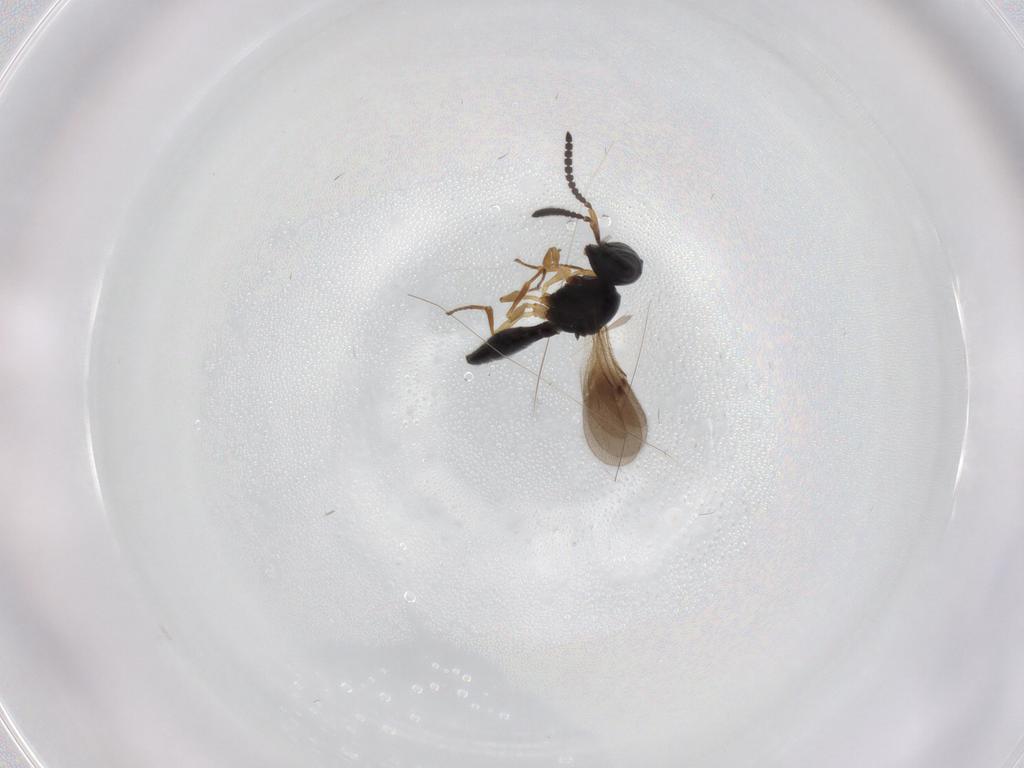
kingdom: Animalia
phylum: Arthropoda
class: Insecta
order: Hymenoptera
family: Scelionidae
